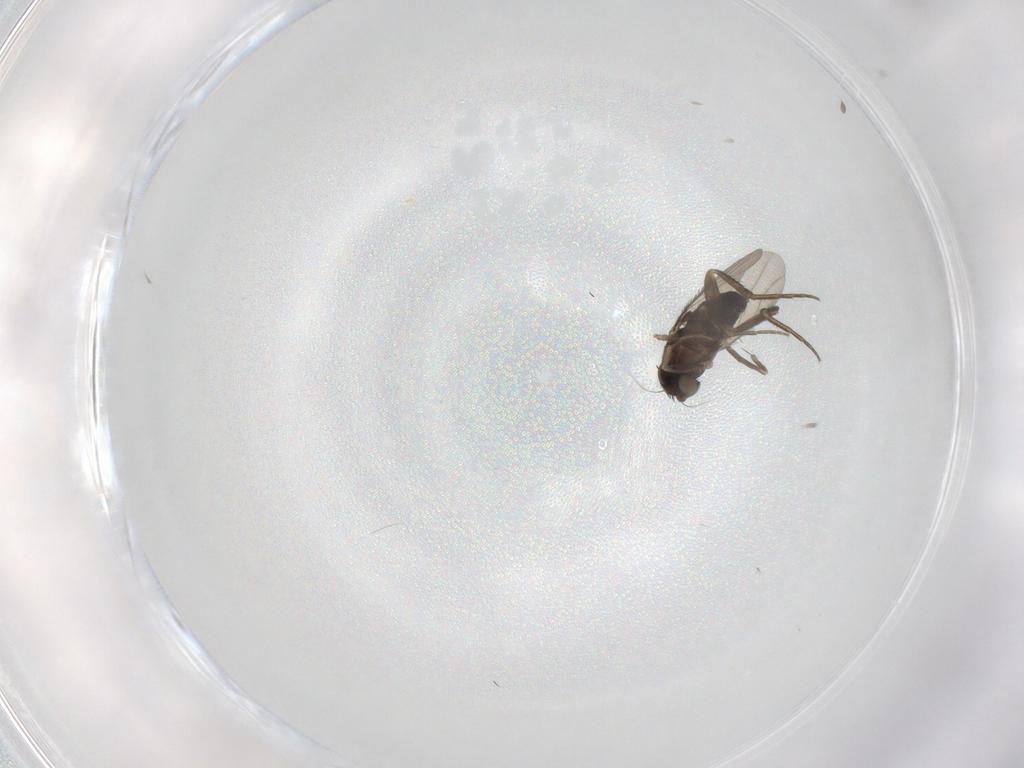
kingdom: Animalia
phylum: Arthropoda
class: Insecta
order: Diptera
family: Phoridae
